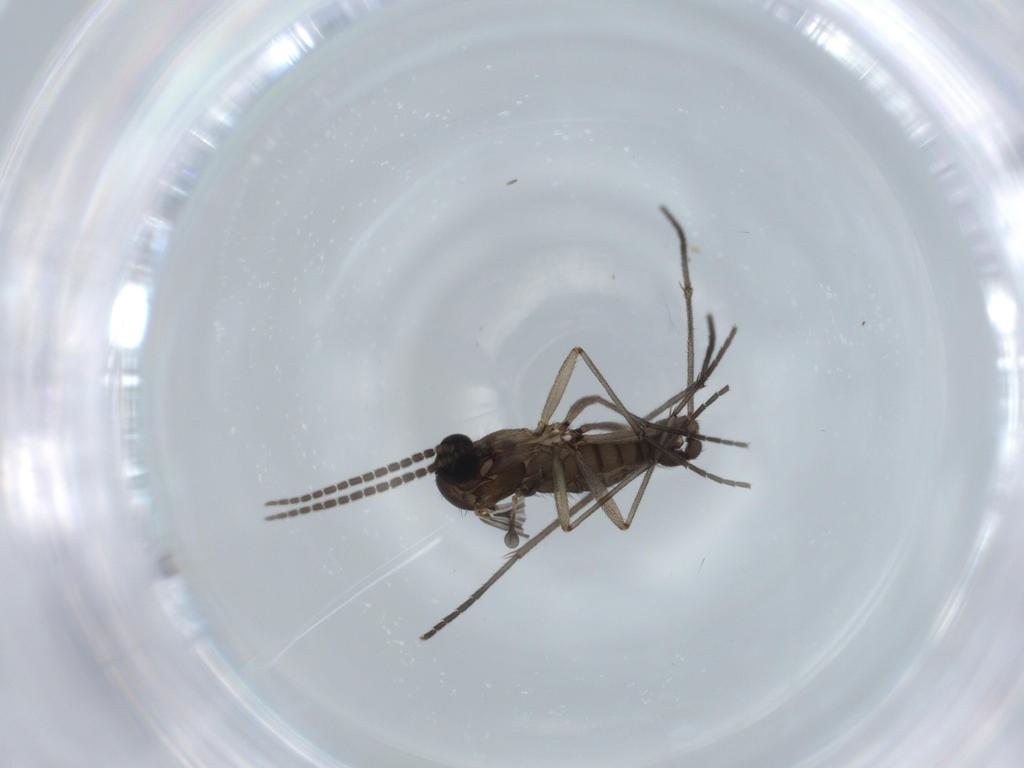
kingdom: Animalia
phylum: Arthropoda
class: Insecta
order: Diptera
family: Sciaridae
